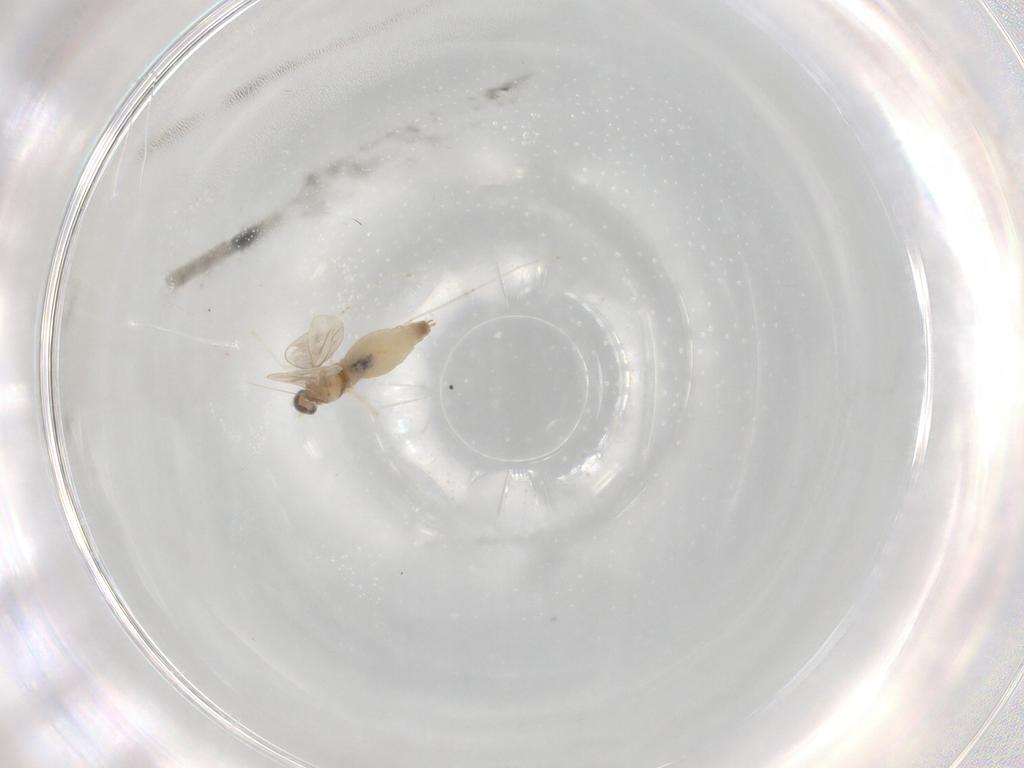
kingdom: Animalia
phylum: Arthropoda
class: Insecta
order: Diptera
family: Cecidomyiidae
